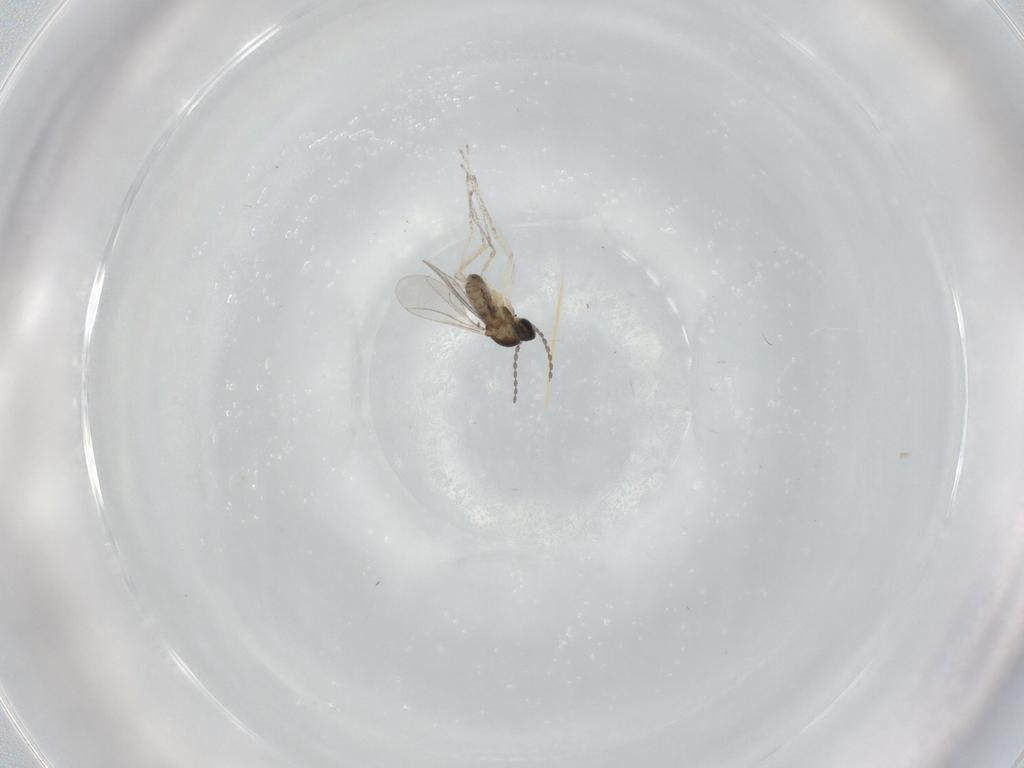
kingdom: Animalia
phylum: Arthropoda
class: Insecta
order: Diptera
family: Cecidomyiidae
